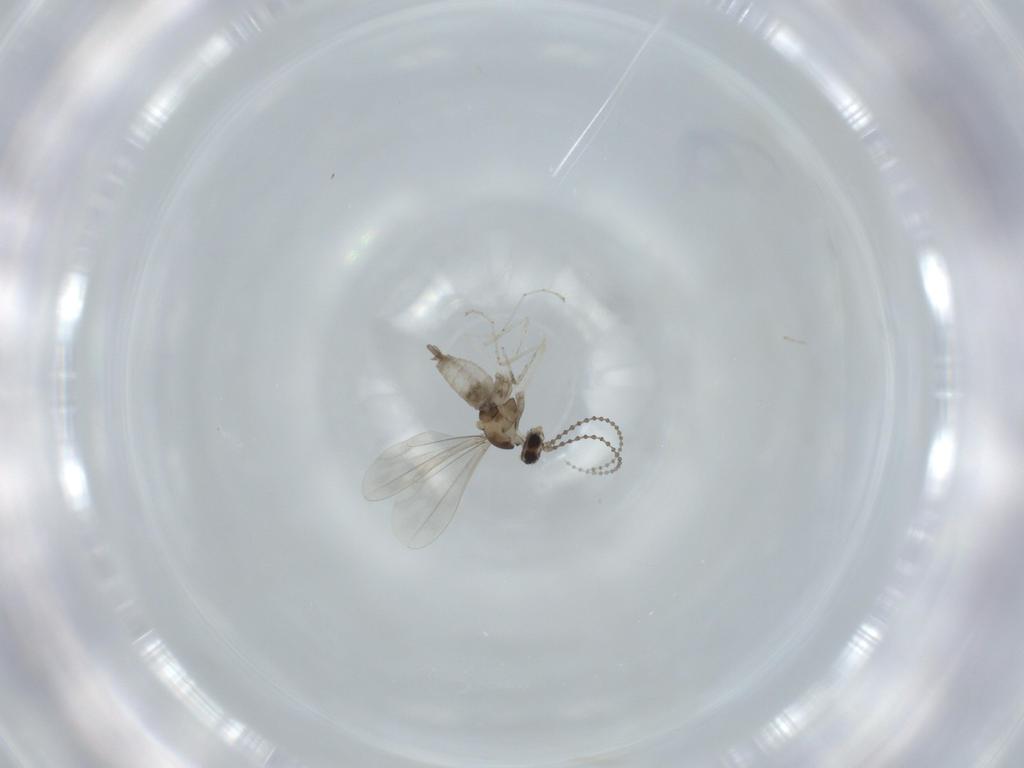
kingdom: Animalia
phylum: Arthropoda
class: Insecta
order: Diptera
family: Cecidomyiidae
